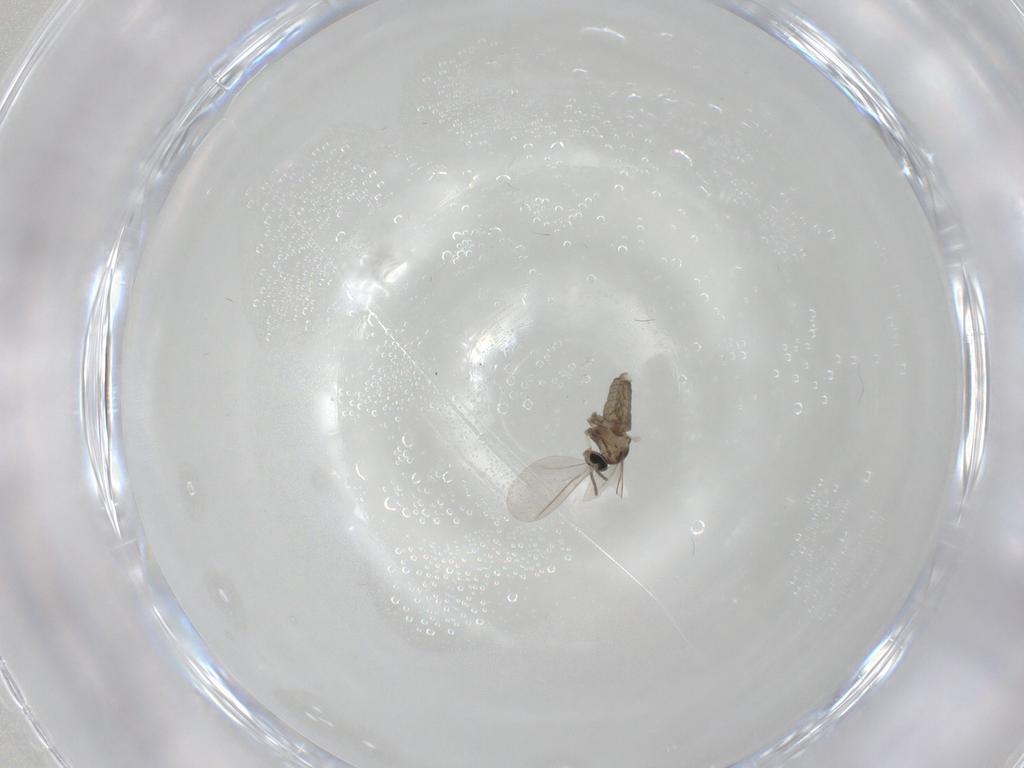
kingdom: Animalia
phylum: Arthropoda
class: Insecta
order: Diptera
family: Cecidomyiidae
